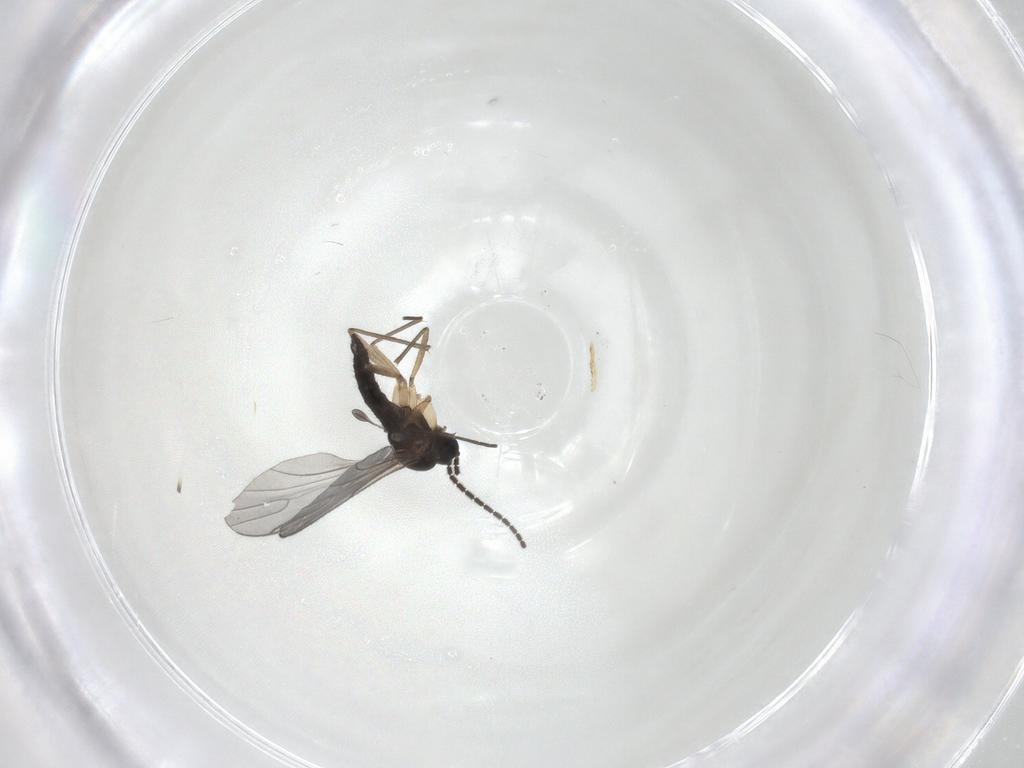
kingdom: Animalia
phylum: Arthropoda
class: Insecta
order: Diptera
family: Sciaridae
